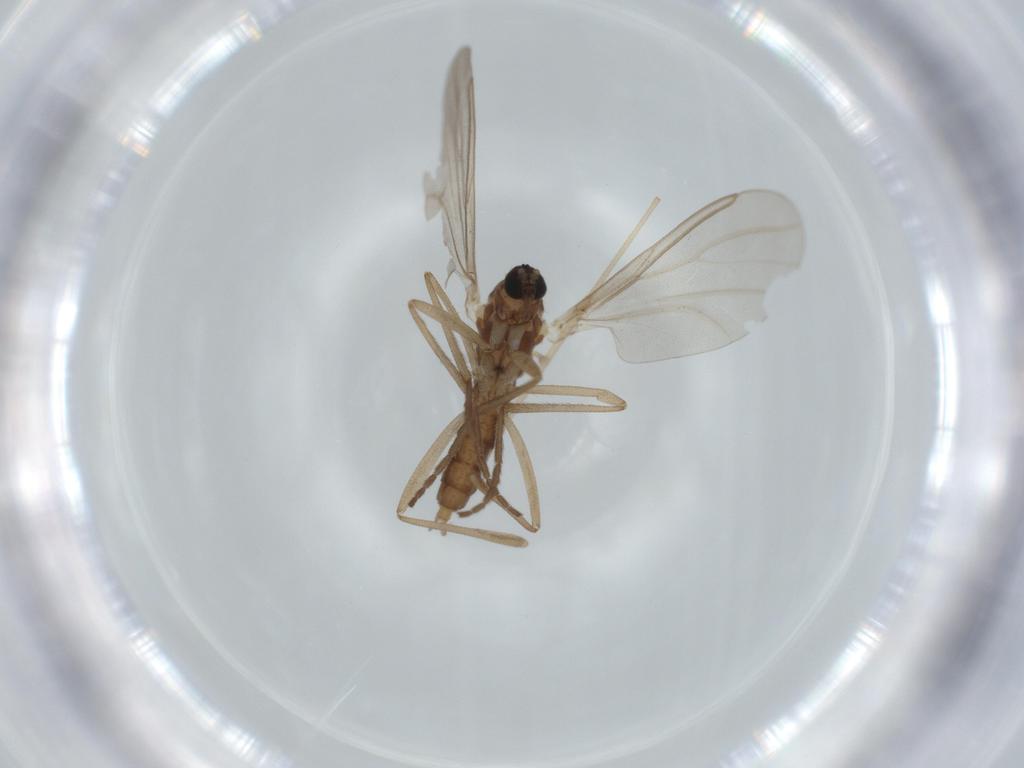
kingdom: Animalia
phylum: Arthropoda
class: Insecta
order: Diptera
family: Cecidomyiidae
